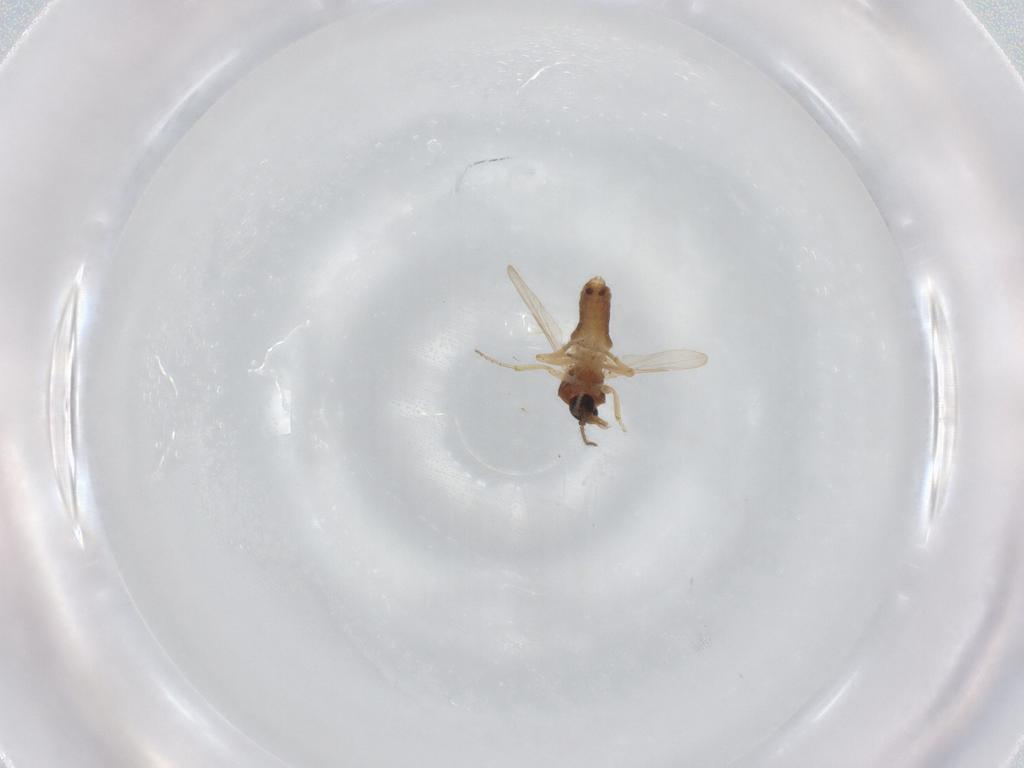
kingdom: Animalia
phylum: Arthropoda
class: Insecta
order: Diptera
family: Ceratopogonidae
